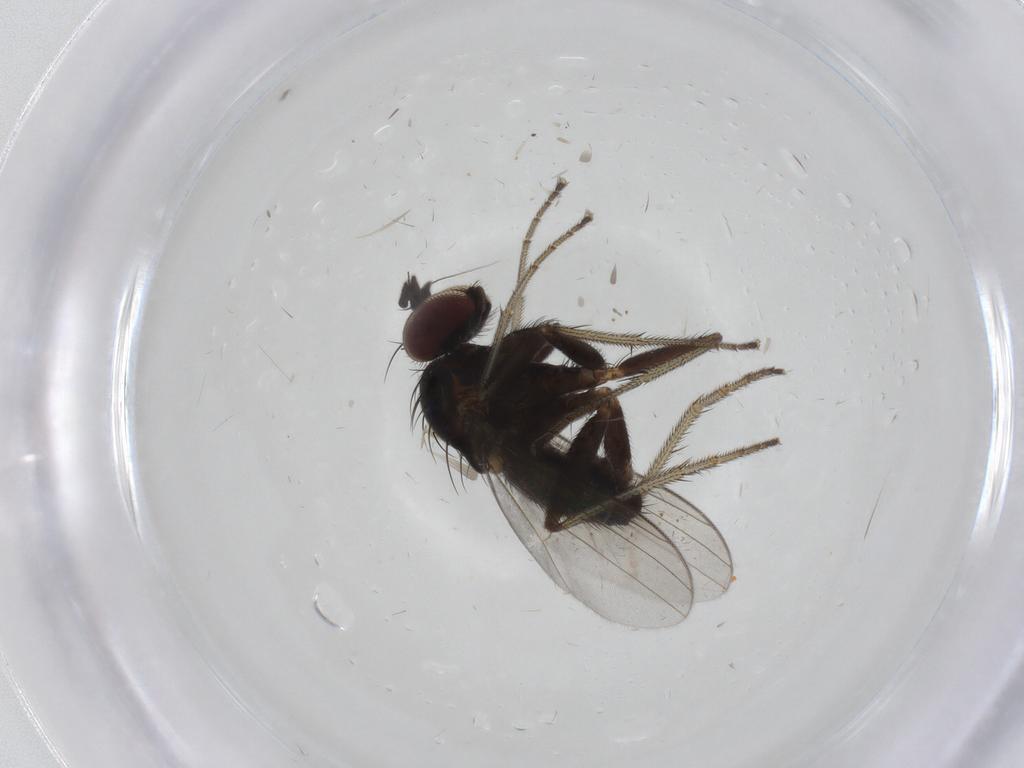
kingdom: Animalia
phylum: Arthropoda
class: Insecta
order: Diptera
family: Dolichopodidae
